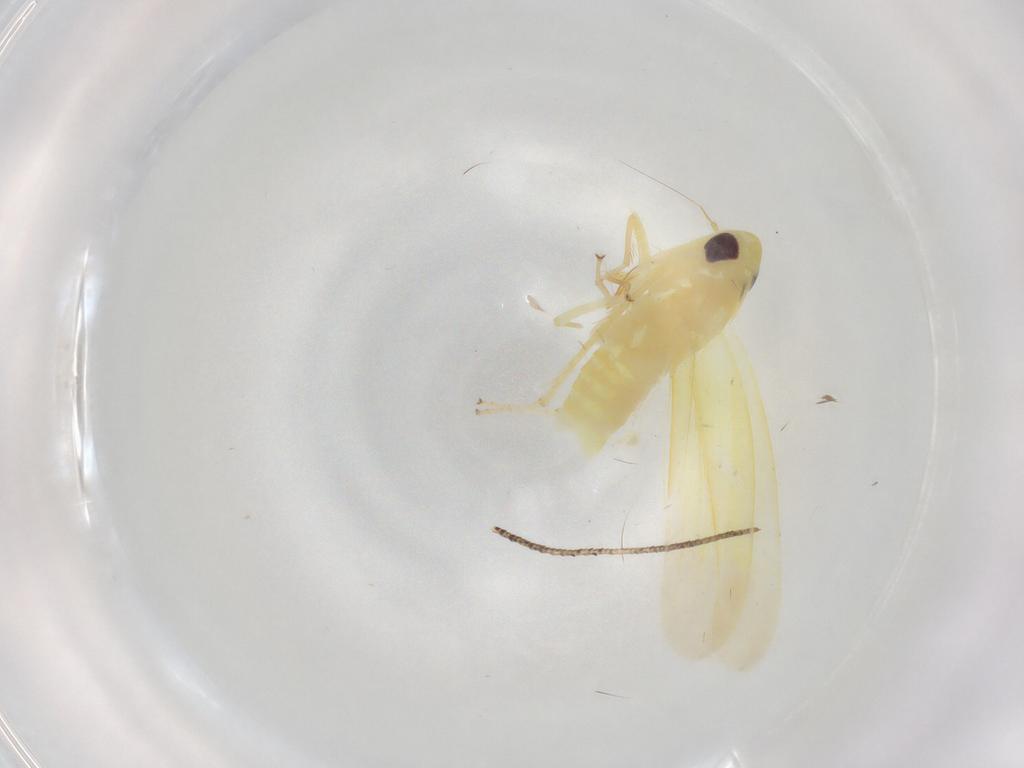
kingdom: Animalia
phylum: Arthropoda
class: Insecta
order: Hemiptera
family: Cicadellidae
